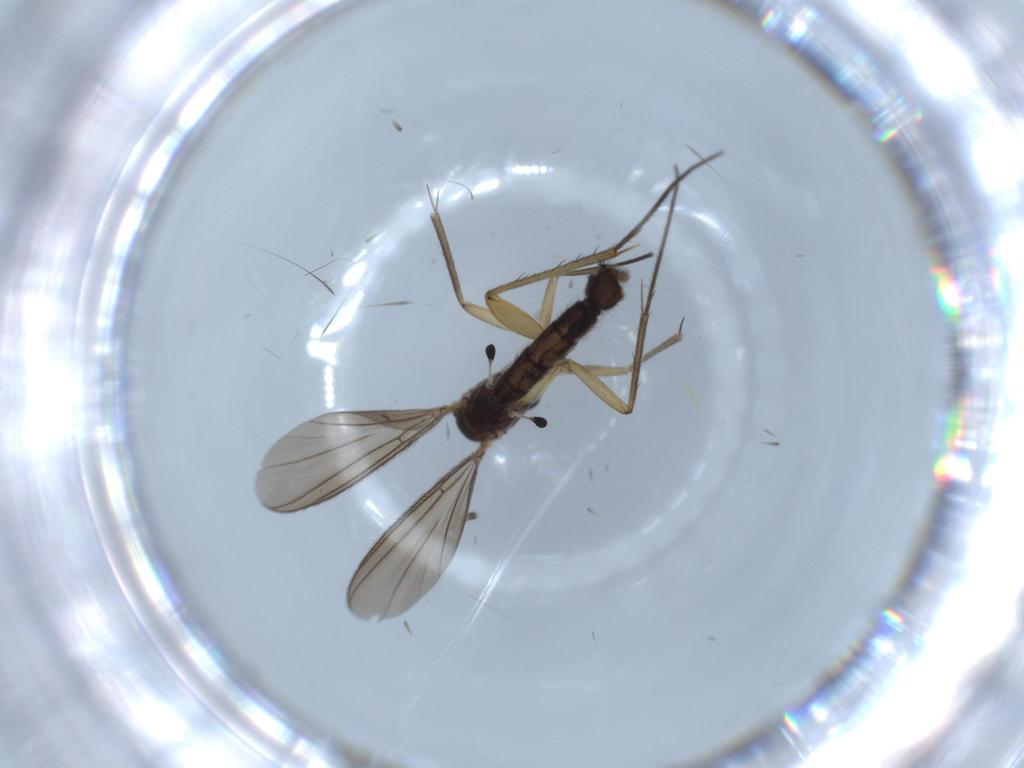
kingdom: Animalia
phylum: Arthropoda
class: Insecta
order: Diptera
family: Mycetophilidae
